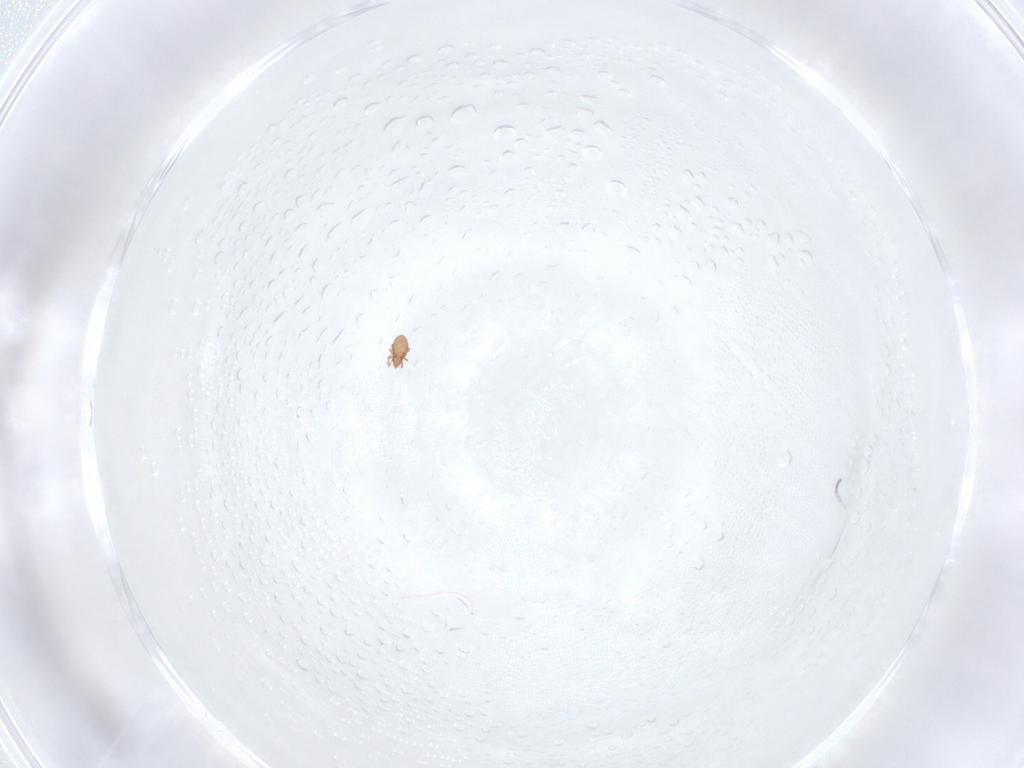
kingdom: Animalia
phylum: Arthropoda
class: Arachnida
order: Sarcoptiformes
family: Oppiidae
